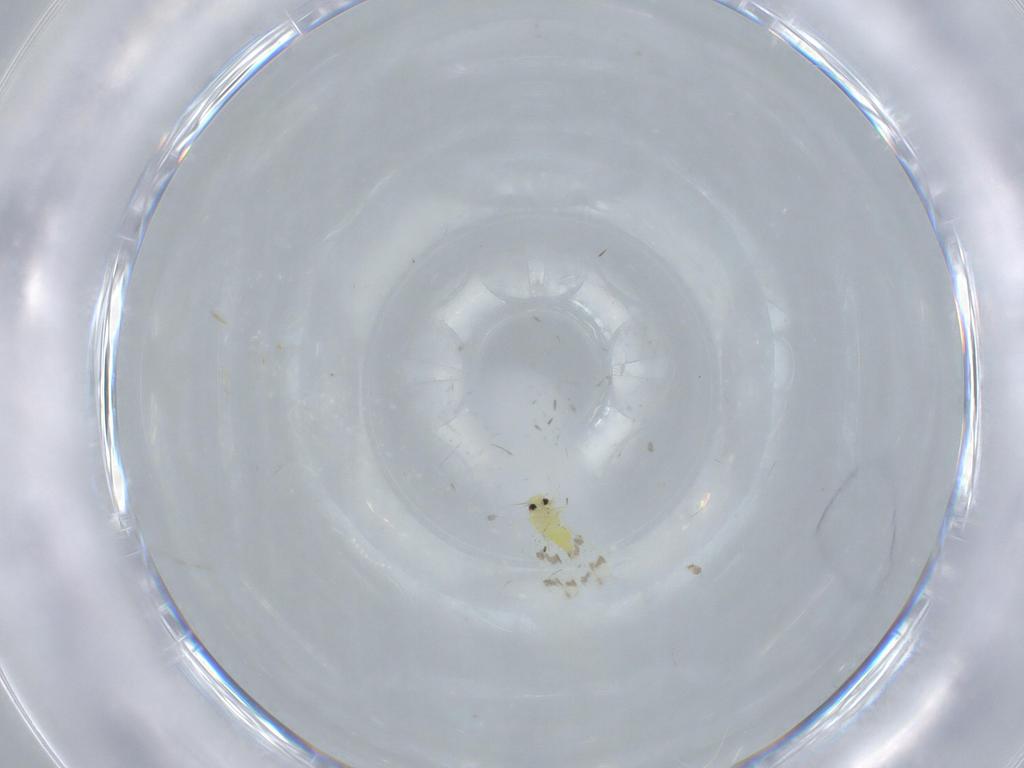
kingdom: Animalia
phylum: Arthropoda
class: Insecta
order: Hemiptera
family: Aleyrodidae
